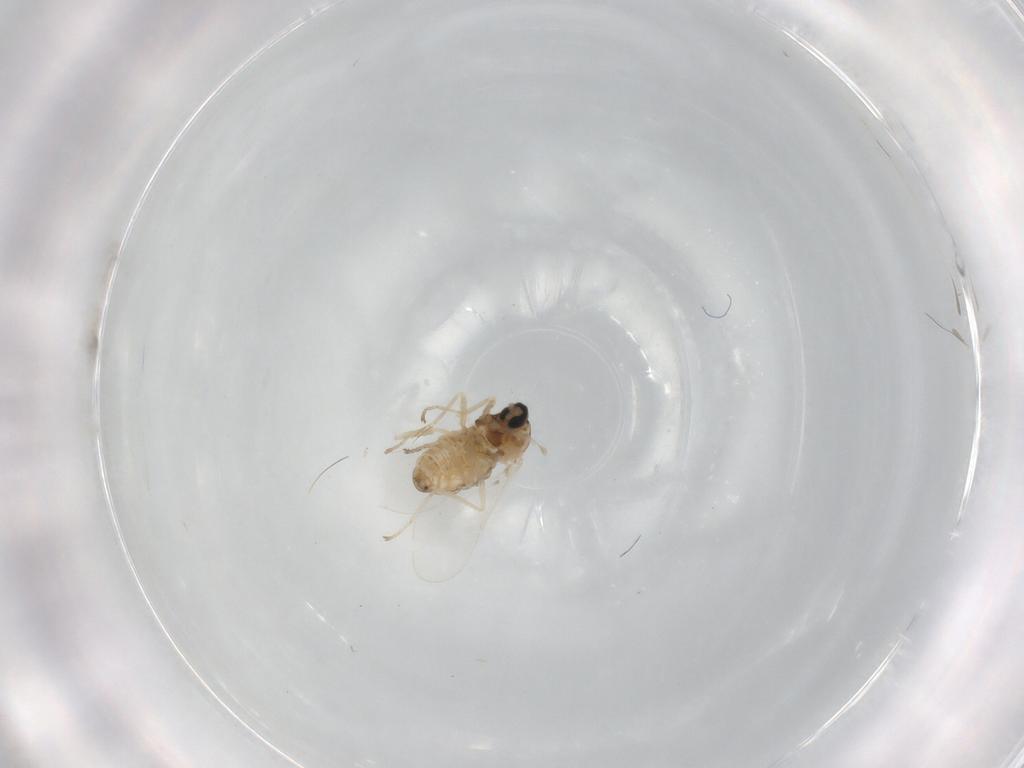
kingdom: Animalia
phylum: Arthropoda
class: Insecta
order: Diptera
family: Cecidomyiidae
